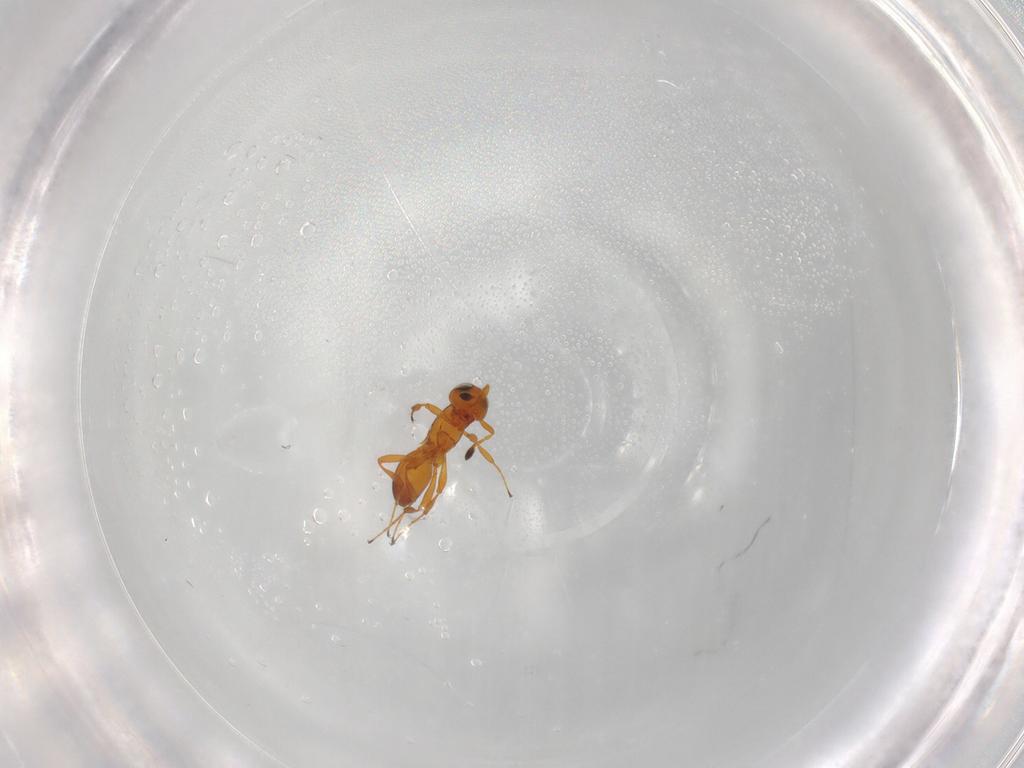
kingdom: Animalia
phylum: Arthropoda
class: Insecta
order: Hymenoptera
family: Platygastridae
